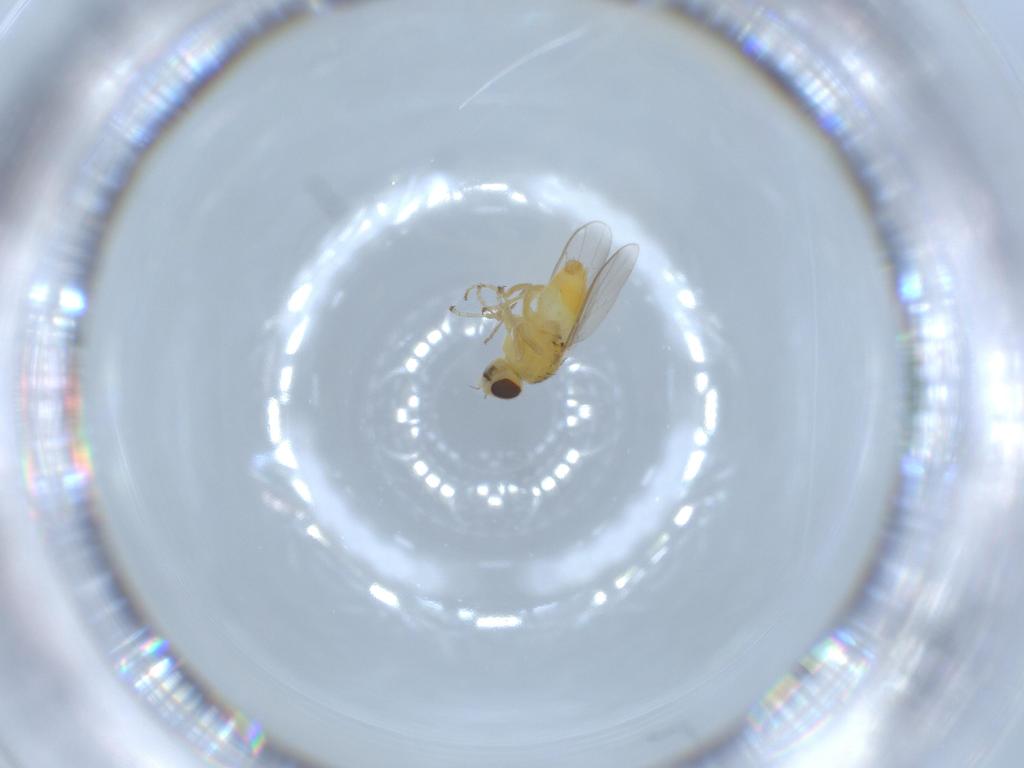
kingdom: Animalia
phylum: Arthropoda
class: Insecta
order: Diptera
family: Chloropidae
